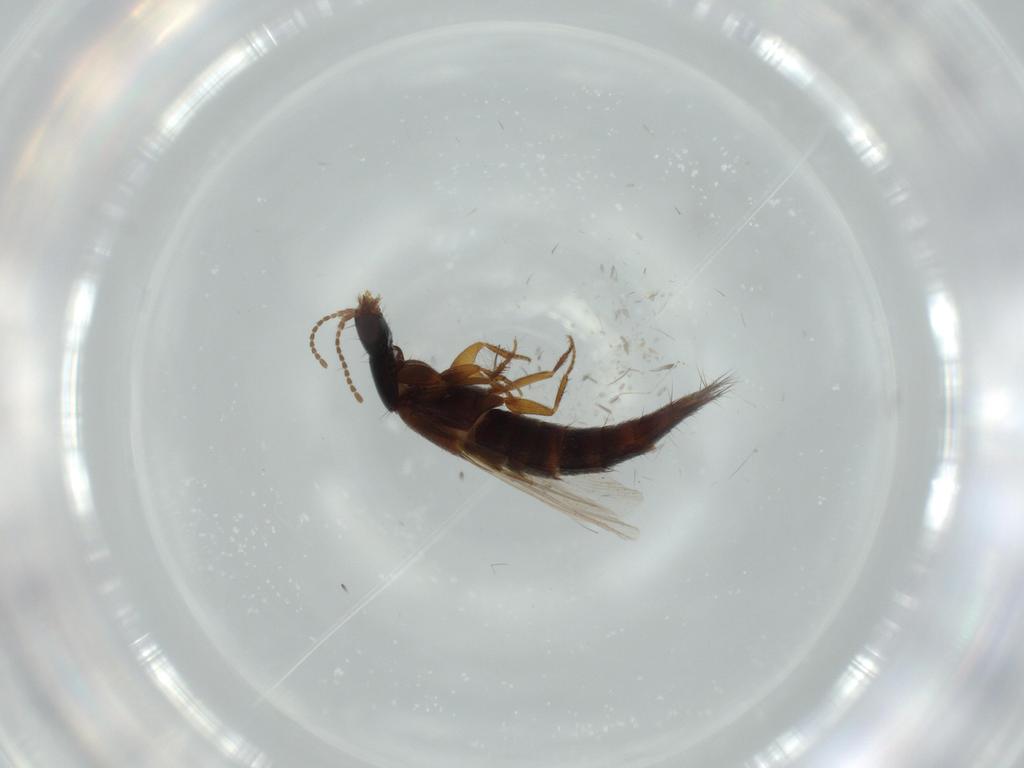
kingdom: Animalia
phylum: Arthropoda
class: Insecta
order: Coleoptera
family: Staphylinidae
